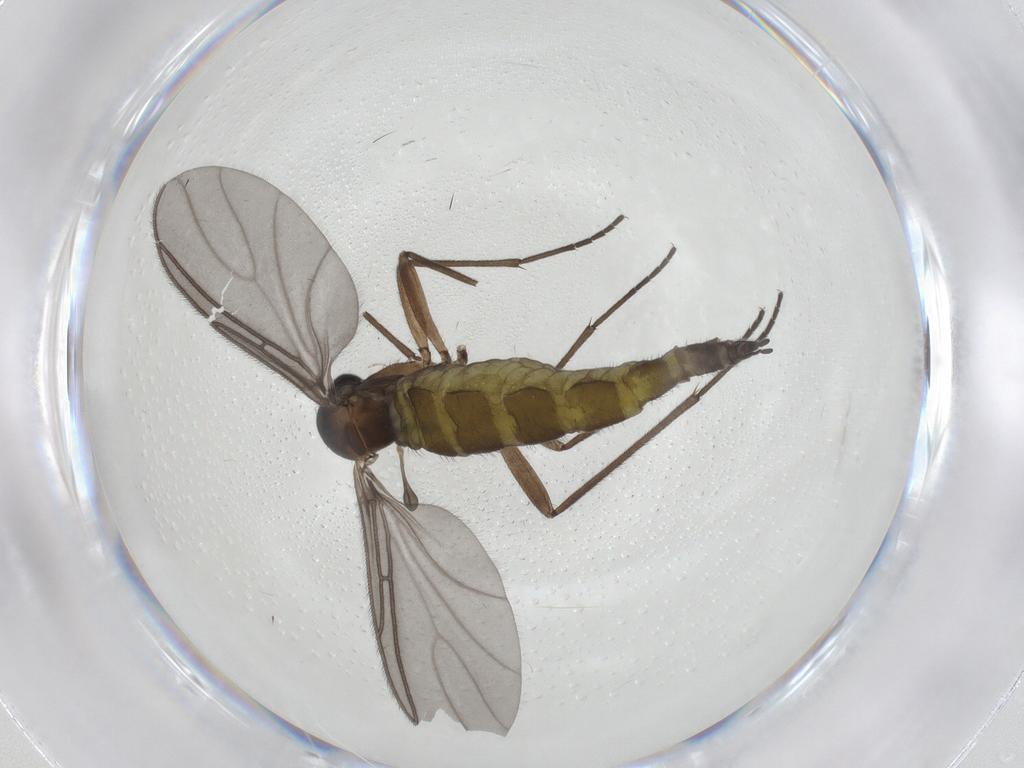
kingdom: Animalia
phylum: Arthropoda
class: Insecta
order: Diptera
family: Sciaridae
